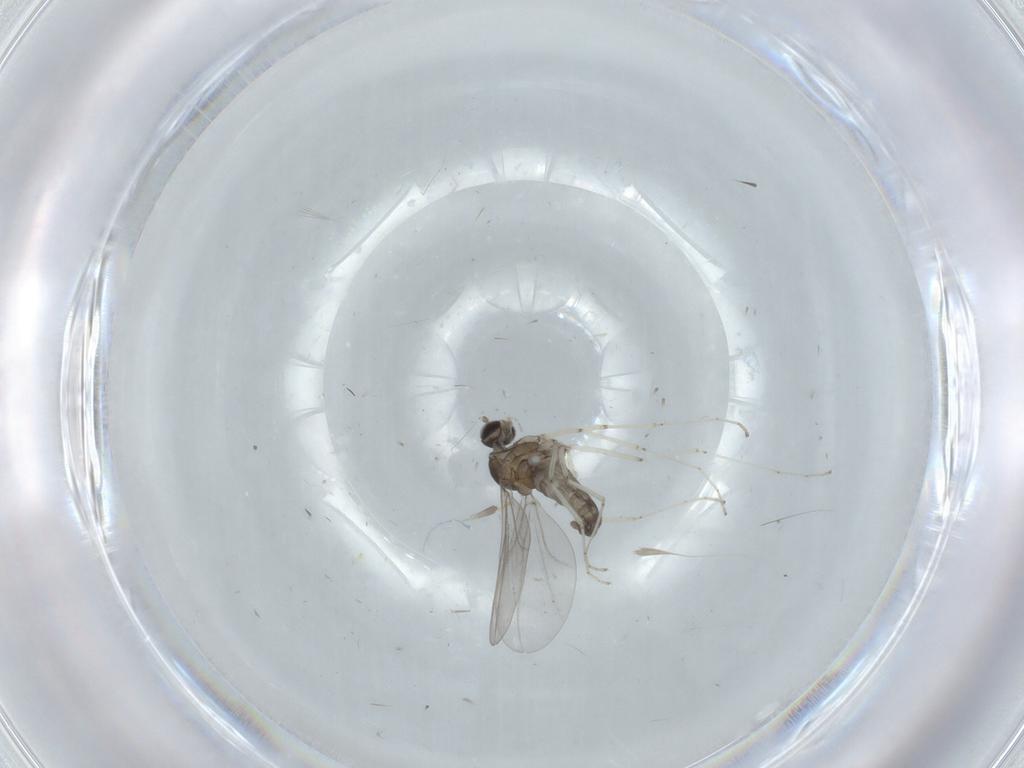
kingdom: Animalia
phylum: Arthropoda
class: Insecta
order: Diptera
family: Cecidomyiidae
